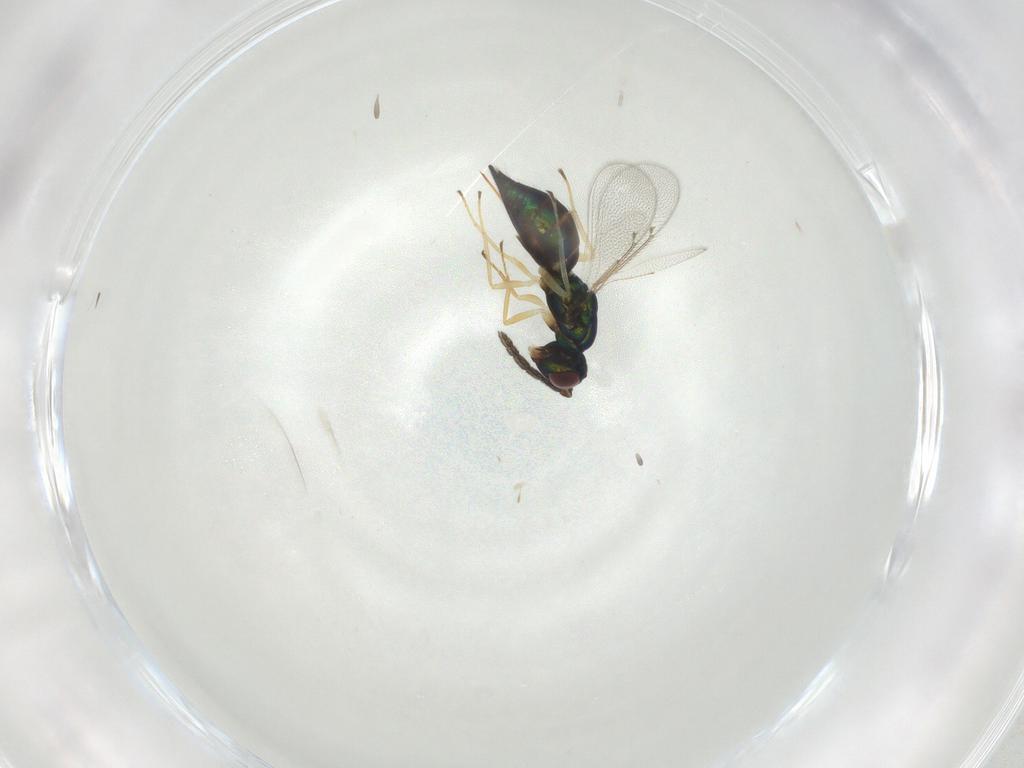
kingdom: Animalia
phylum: Arthropoda
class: Insecta
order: Hymenoptera
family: Eulophidae
